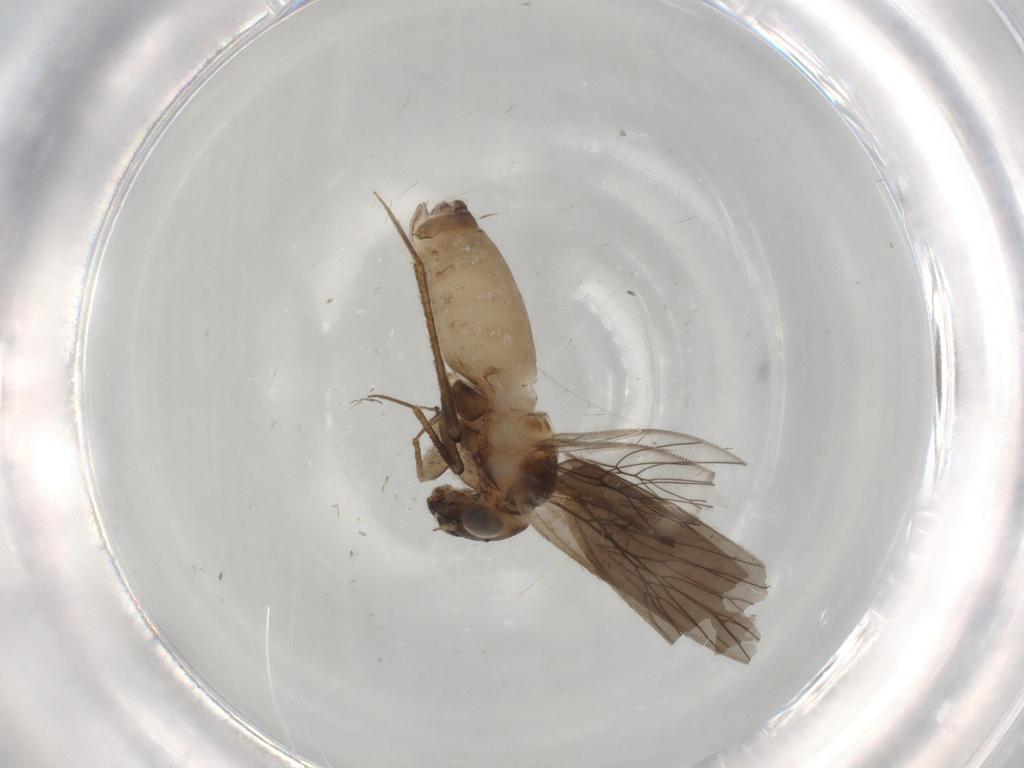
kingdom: Animalia
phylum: Arthropoda
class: Insecta
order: Psocodea
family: Lepidopsocidae
